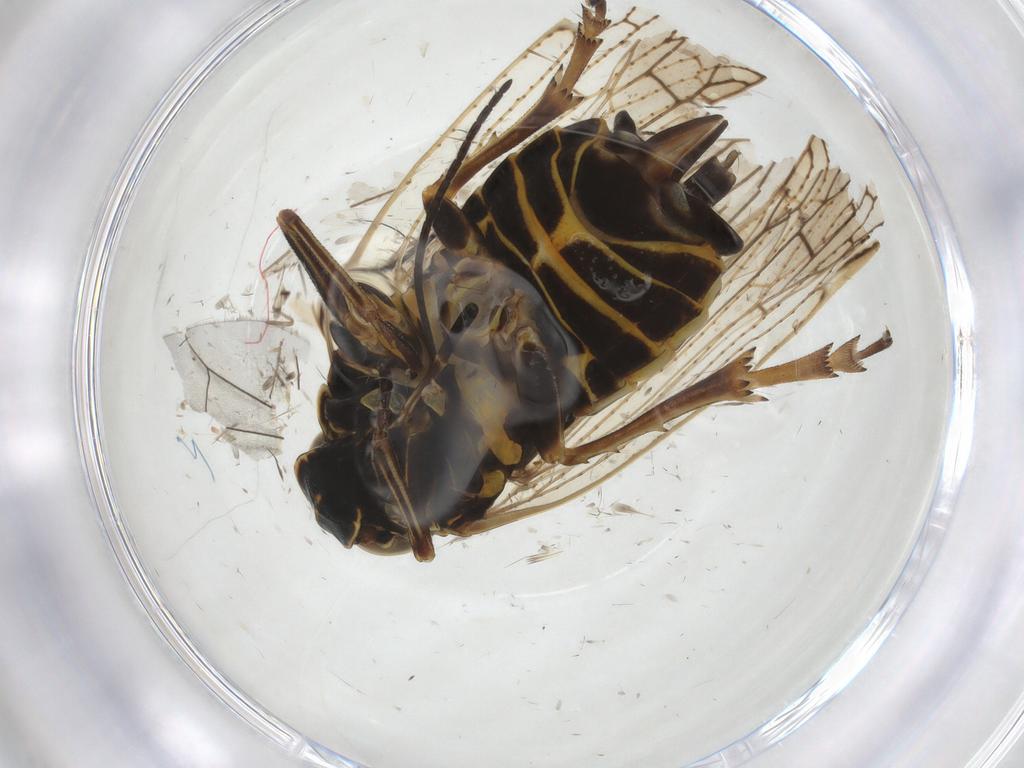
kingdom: Animalia
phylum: Arthropoda
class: Insecta
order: Hemiptera
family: Cixiidae
